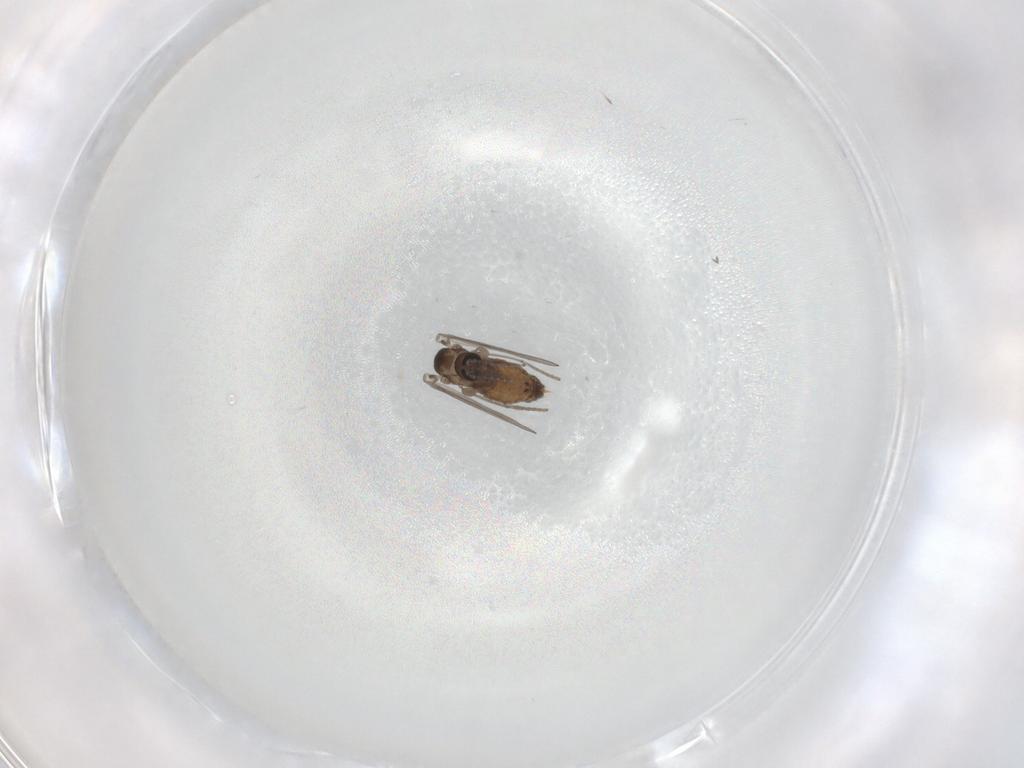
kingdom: Animalia
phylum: Arthropoda
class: Insecta
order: Diptera
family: Psychodidae
